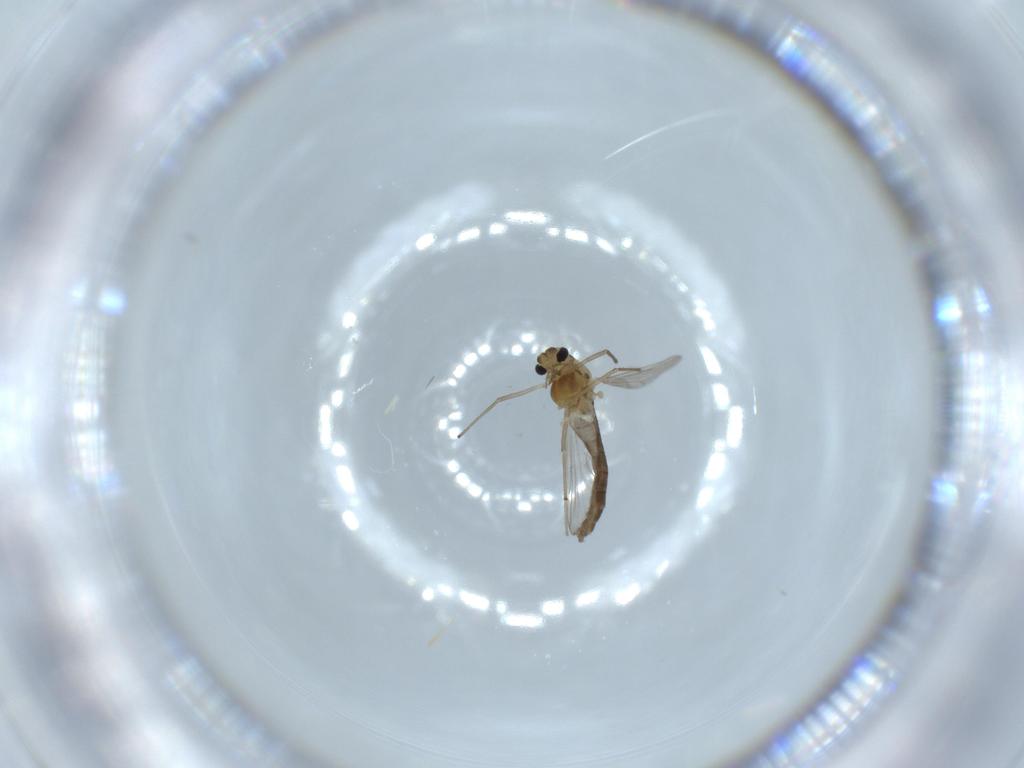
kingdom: Animalia
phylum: Arthropoda
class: Insecta
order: Diptera
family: Chironomidae
